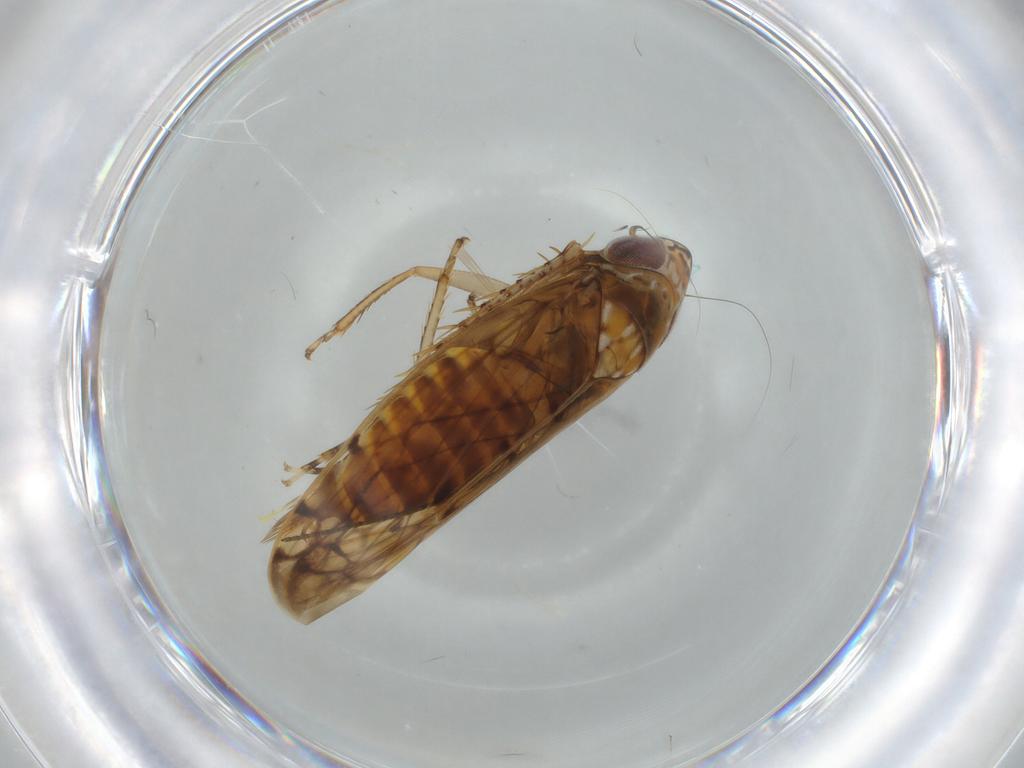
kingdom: Animalia
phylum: Arthropoda
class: Insecta
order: Hemiptera
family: Cicadellidae
